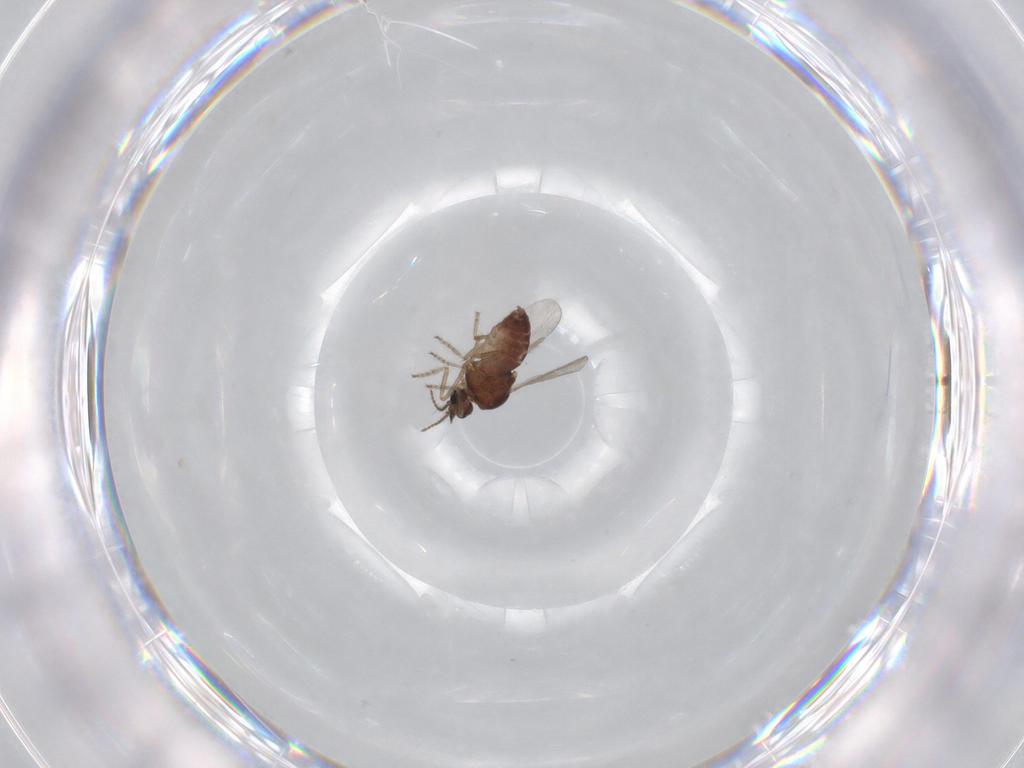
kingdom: Animalia
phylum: Arthropoda
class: Insecta
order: Diptera
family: Ceratopogonidae
